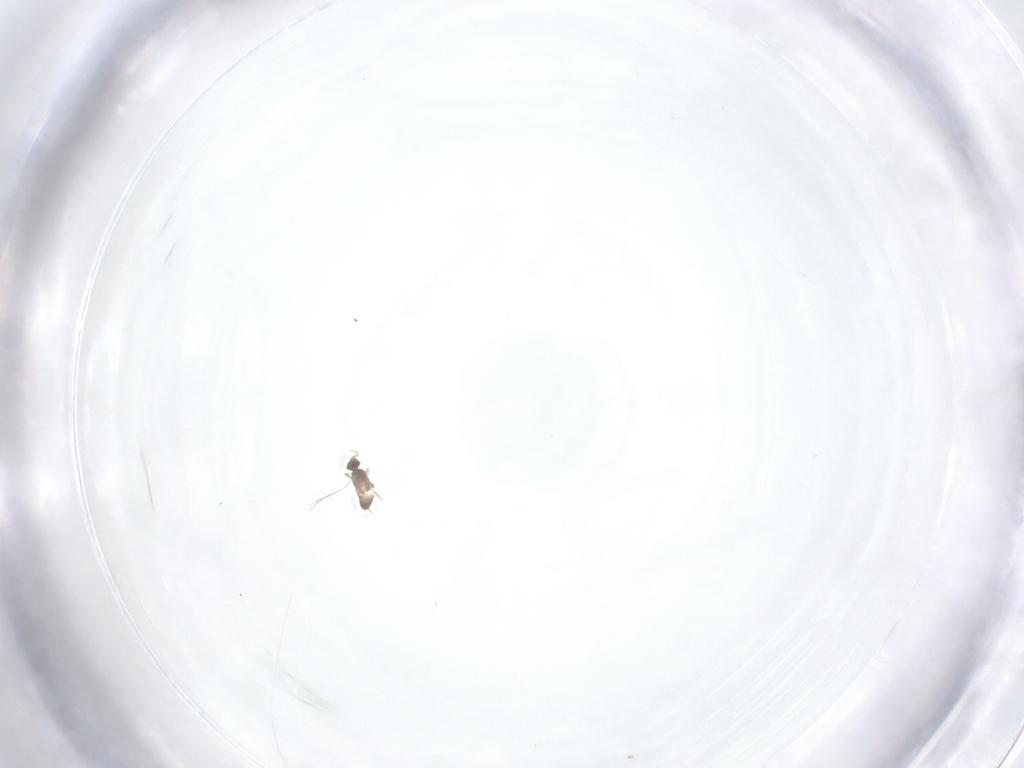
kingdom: Animalia
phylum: Arthropoda
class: Insecta
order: Hymenoptera
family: Mymaridae
